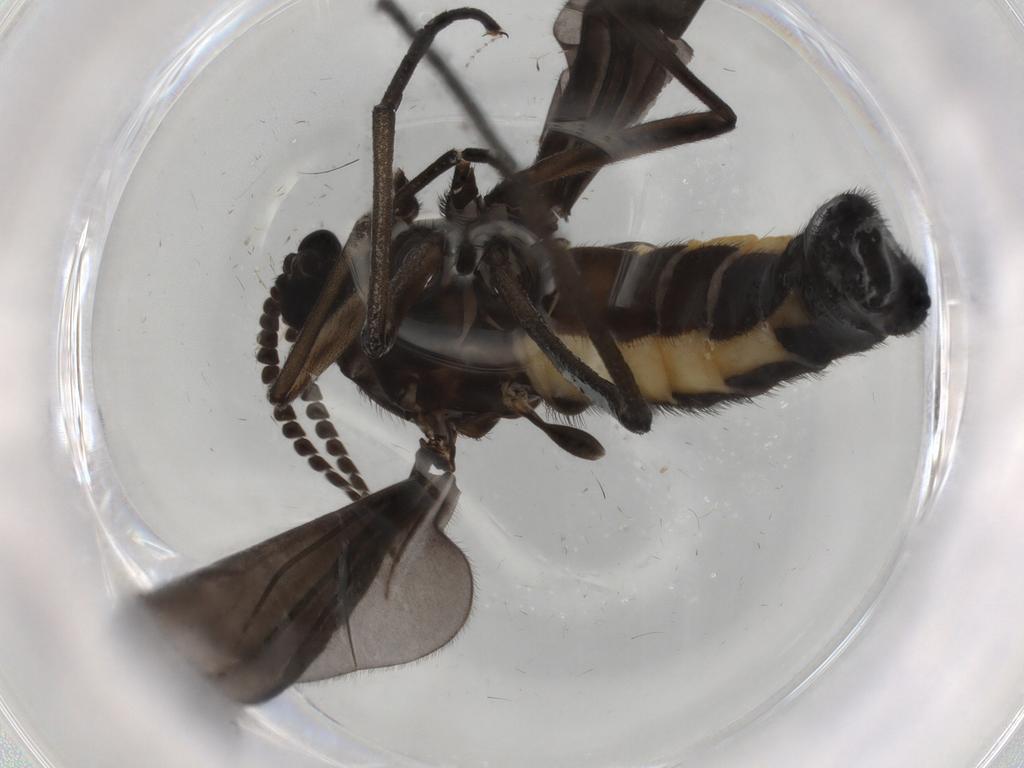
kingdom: Animalia
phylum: Arthropoda
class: Insecta
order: Diptera
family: Sciaridae
